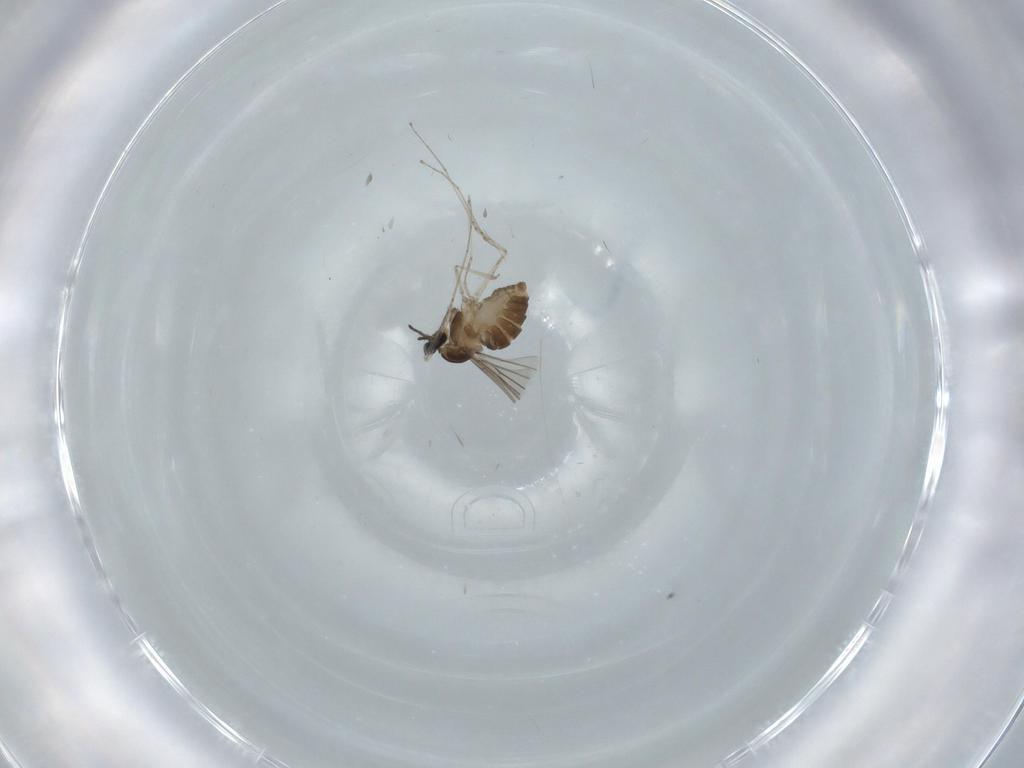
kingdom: Animalia
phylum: Arthropoda
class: Insecta
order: Diptera
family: Cecidomyiidae
